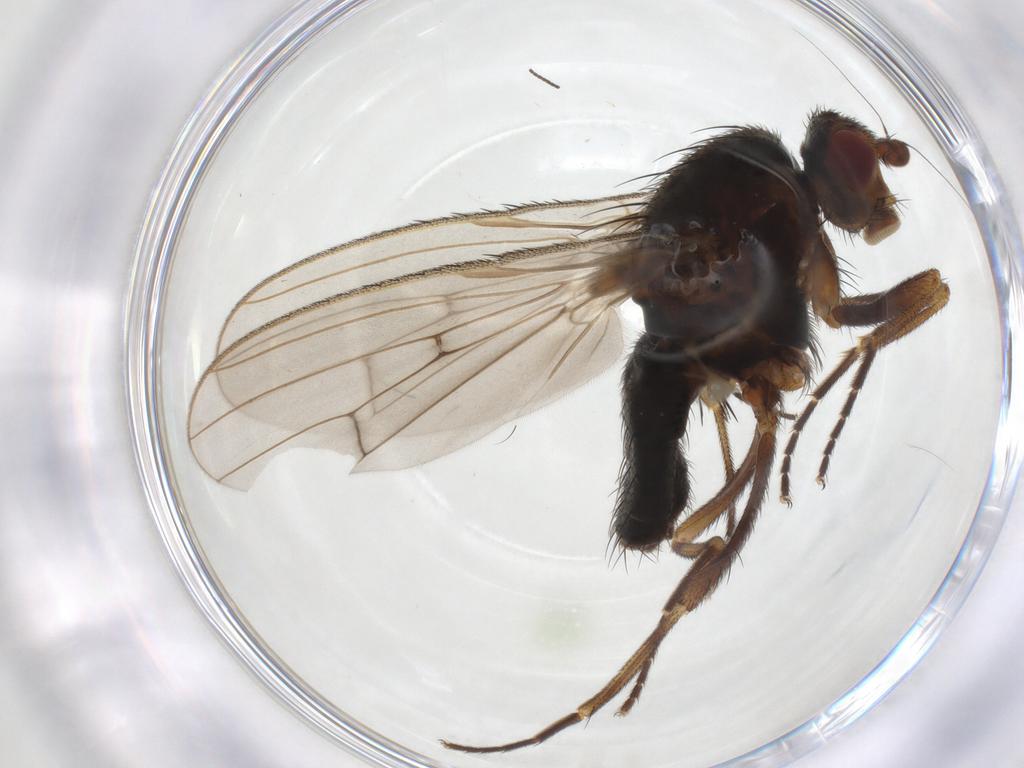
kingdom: Animalia
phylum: Arthropoda
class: Insecta
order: Diptera
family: Heleomyzidae
